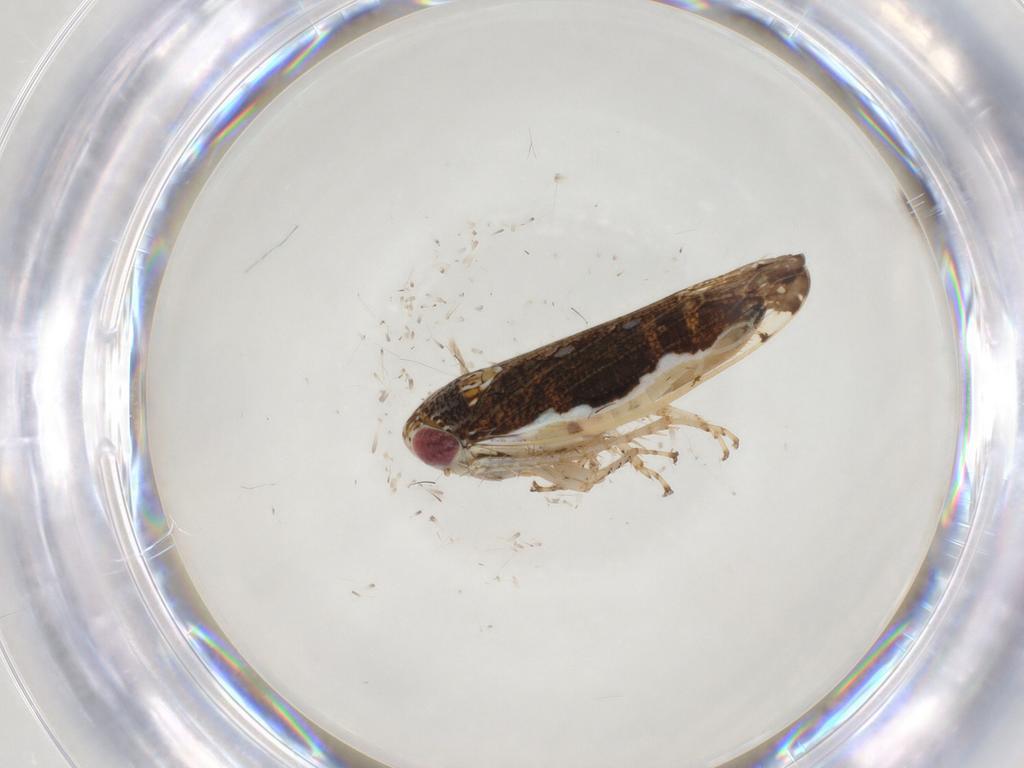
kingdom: Animalia
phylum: Arthropoda
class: Insecta
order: Hemiptera
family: Cicadellidae
